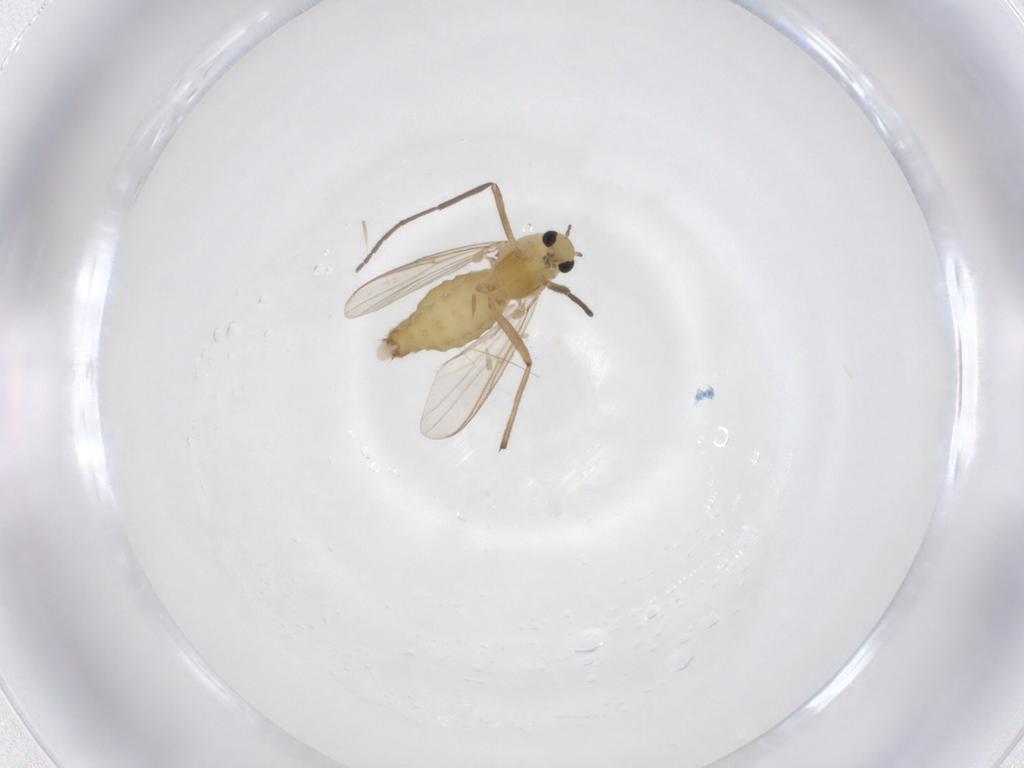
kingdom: Animalia
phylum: Arthropoda
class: Insecta
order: Diptera
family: Chironomidae
